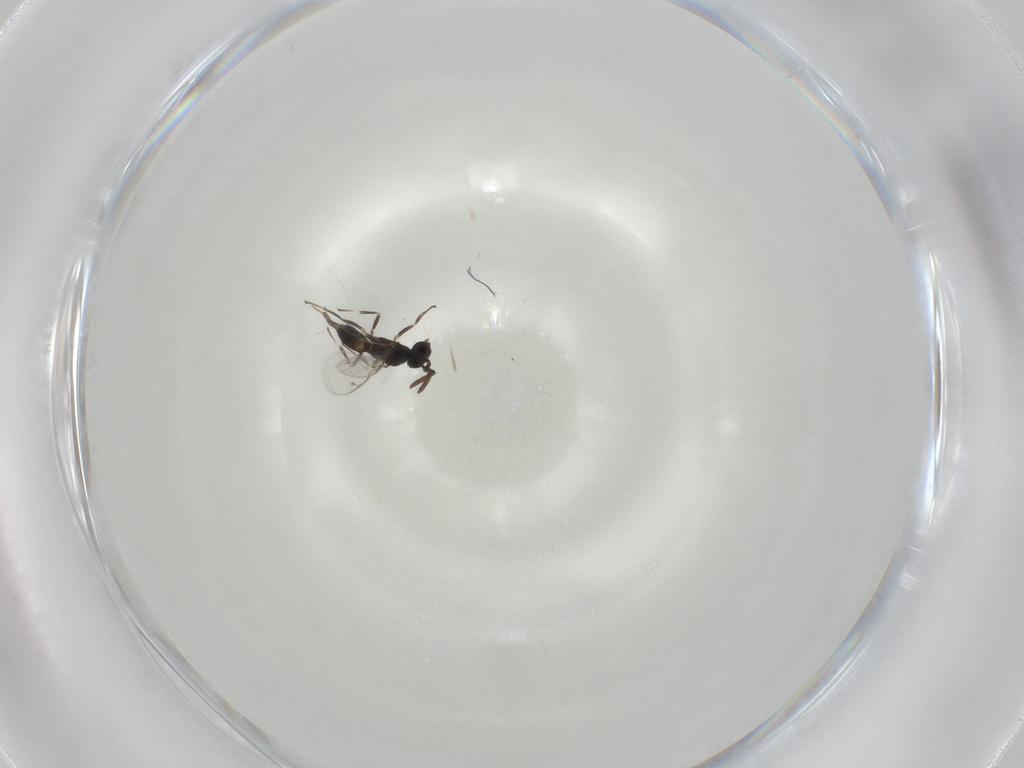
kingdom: Animalia
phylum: Arthropoda
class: Insecta
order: Hymenoptera
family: Eupelmidae
